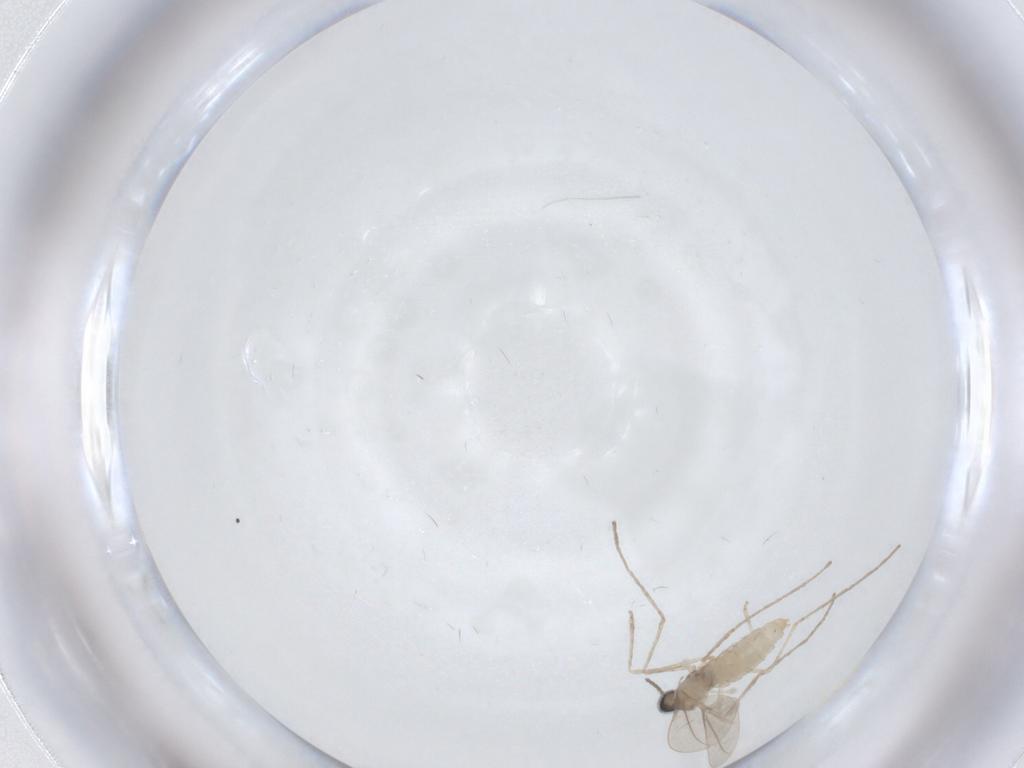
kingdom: Animalia
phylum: Arthropoda
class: Insecta
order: Diptera
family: Cecidomyiidae
